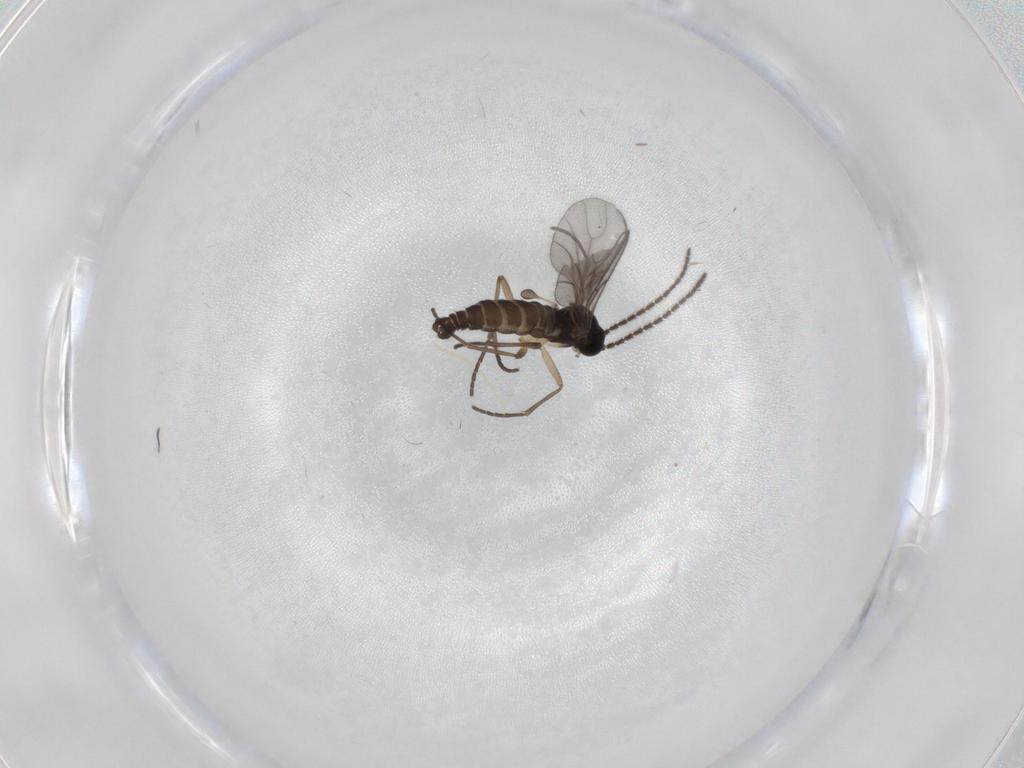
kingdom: Animalia
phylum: Arthropoda
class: Insecta
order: Diptera
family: Sciaridae
